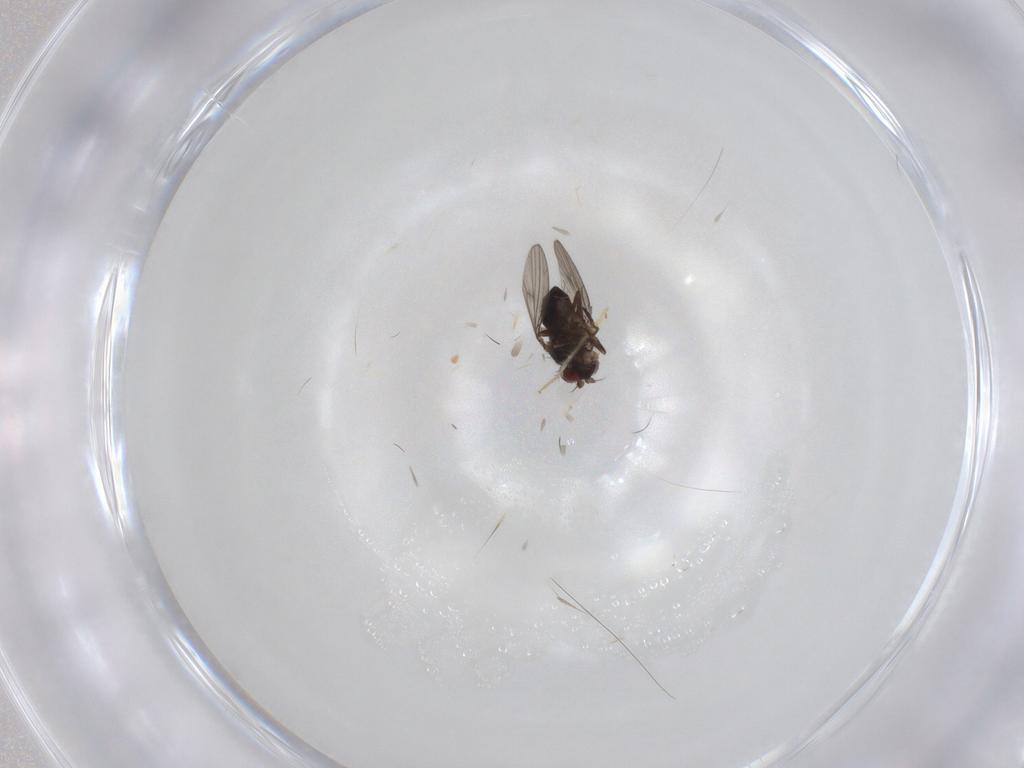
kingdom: Animalia
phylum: Arthropoda
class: Insecta
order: Diptera
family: Ephydridae
